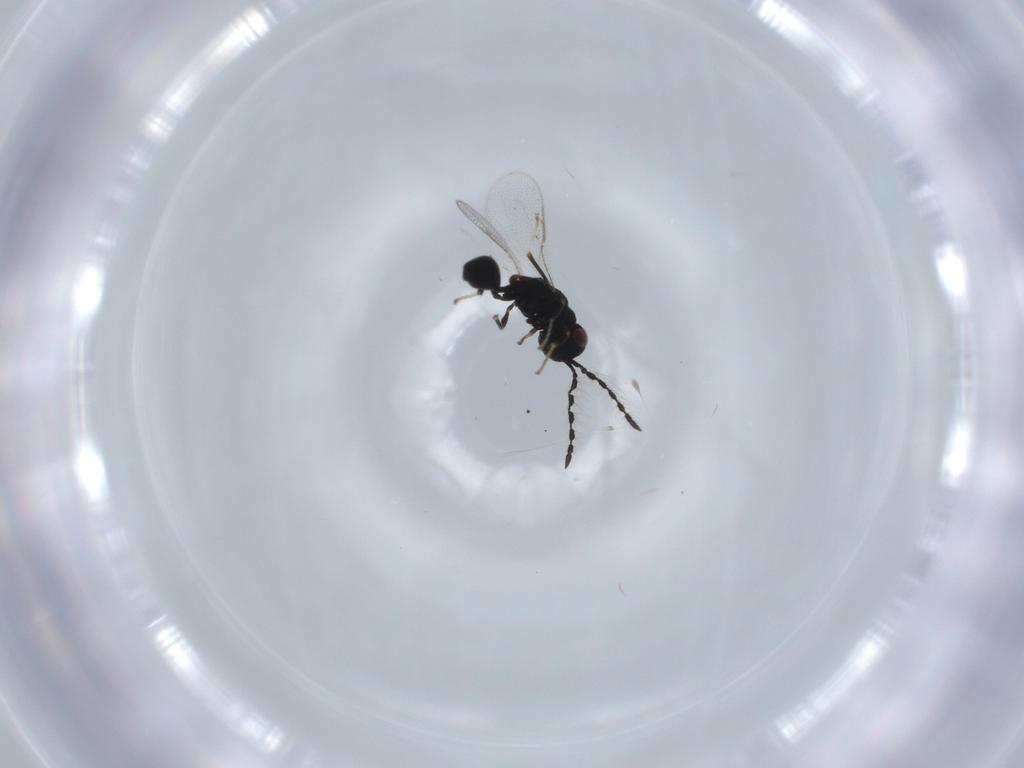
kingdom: Animalia
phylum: Arthropoda
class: Insecta
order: Hymenoptera
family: Eurytomidae
